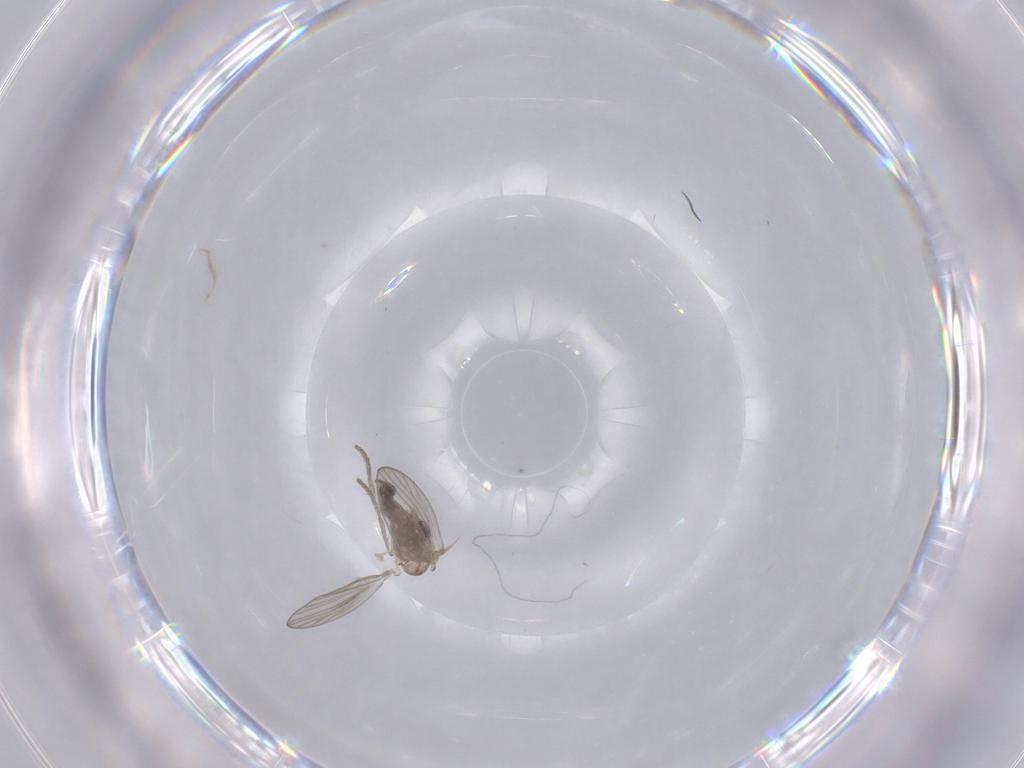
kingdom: Animalia
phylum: Arthropoda
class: Insecta
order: Diptera
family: Psychodidae
